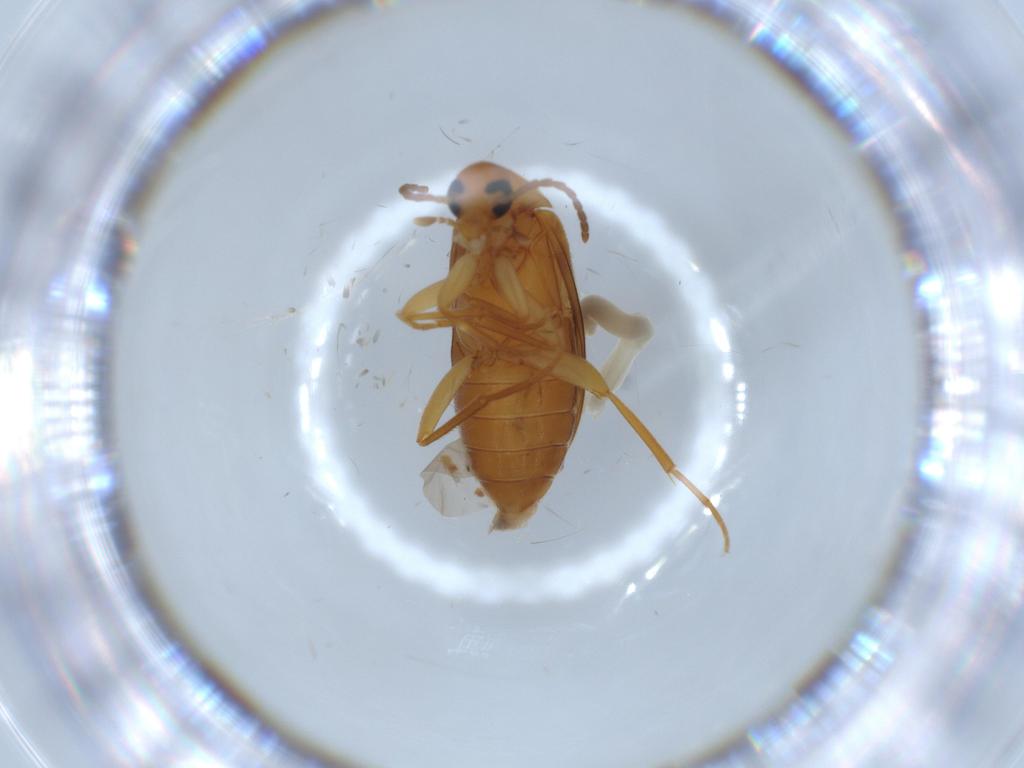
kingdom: Animalia
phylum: Arthropoda
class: Insecta
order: Coleoptera
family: Scraptiidae
